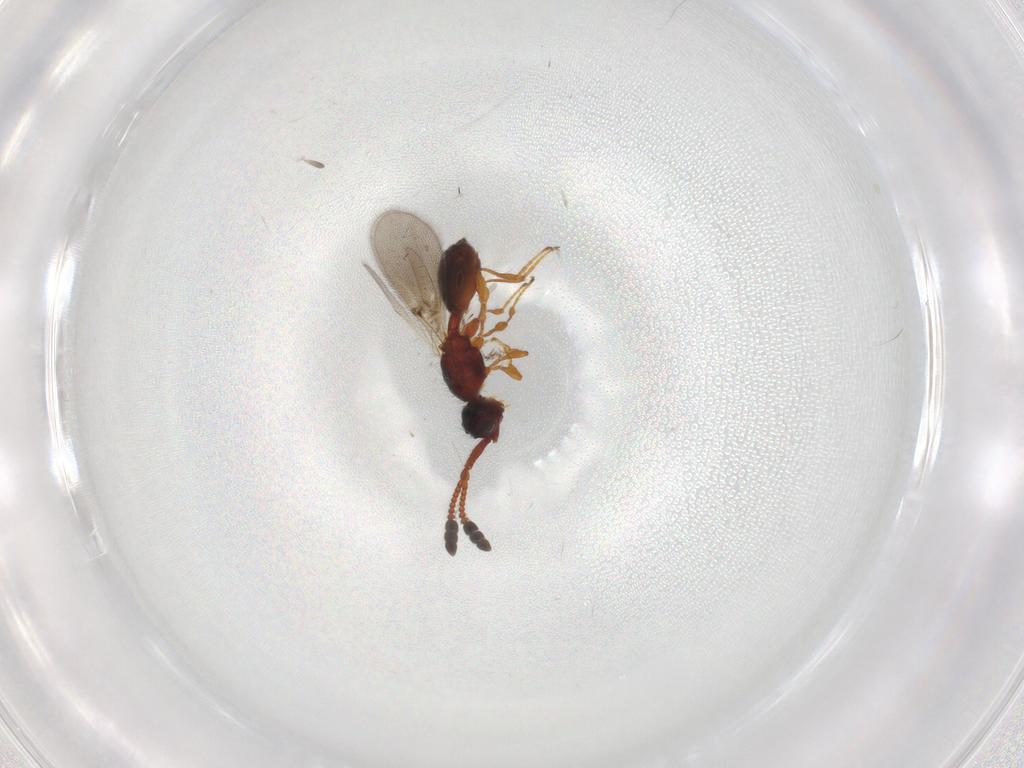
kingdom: Animalia
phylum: Arthropoda
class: Insecta
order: Hymenoptera
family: Diapriidae
